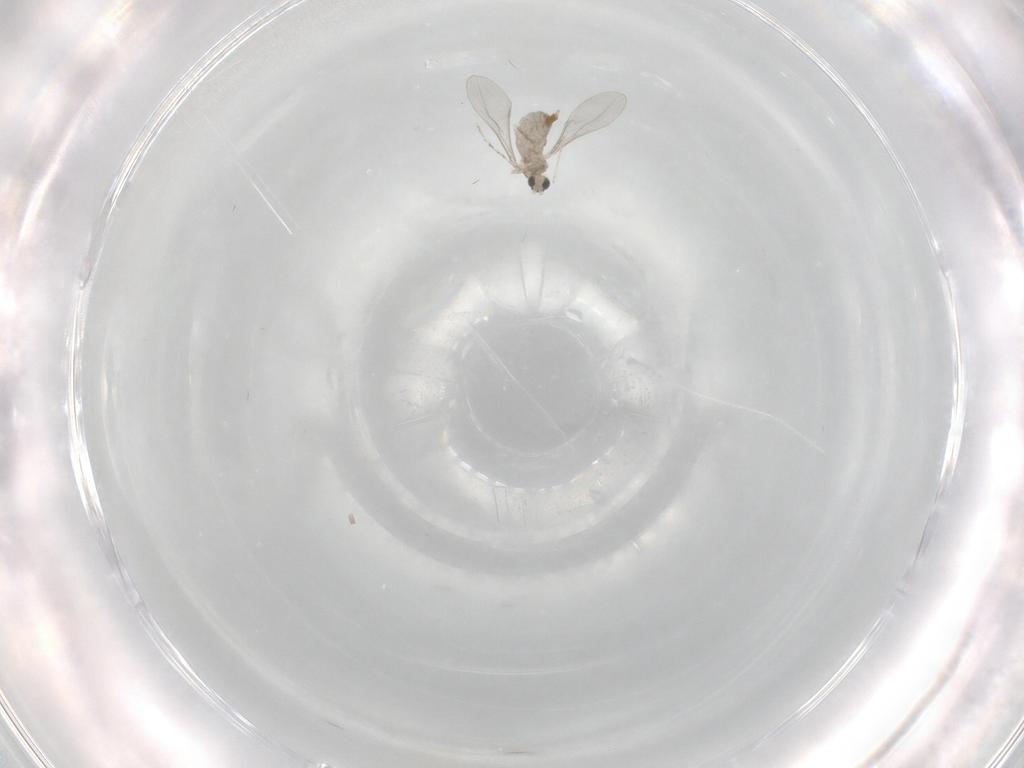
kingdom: Animalia
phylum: Arthropoda
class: Insecta
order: Diptera
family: Cecidomyiidae
